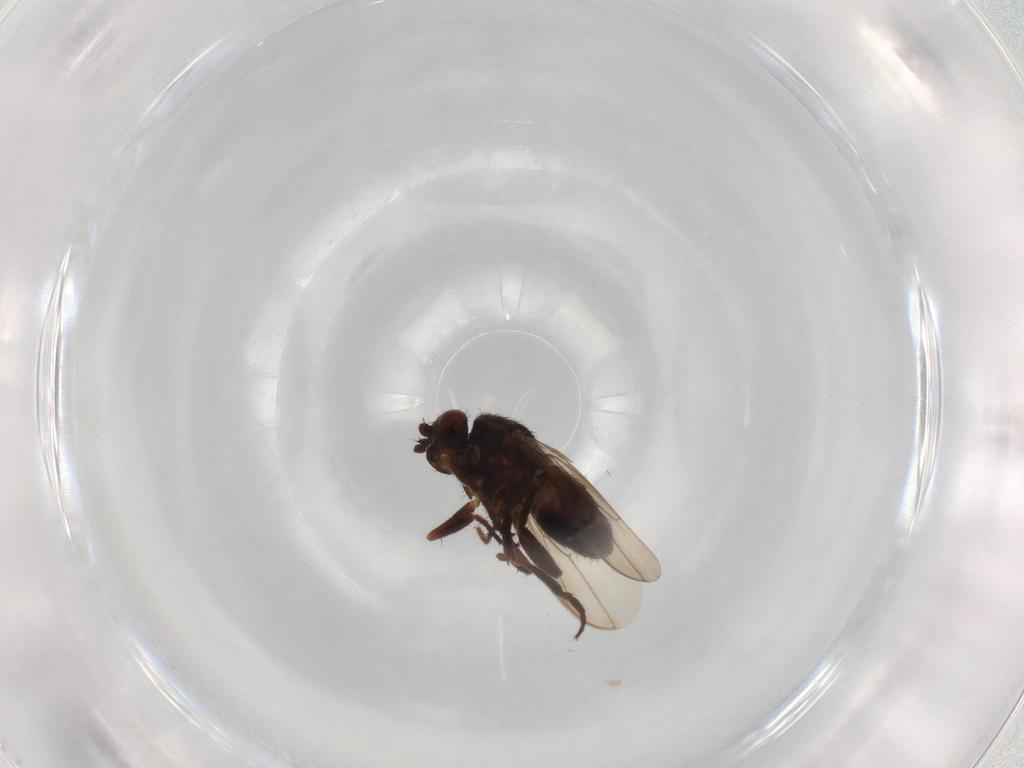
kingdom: Animalia
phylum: Arthropoda
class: Insecta
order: Diptera
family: Sphaeroceridae
